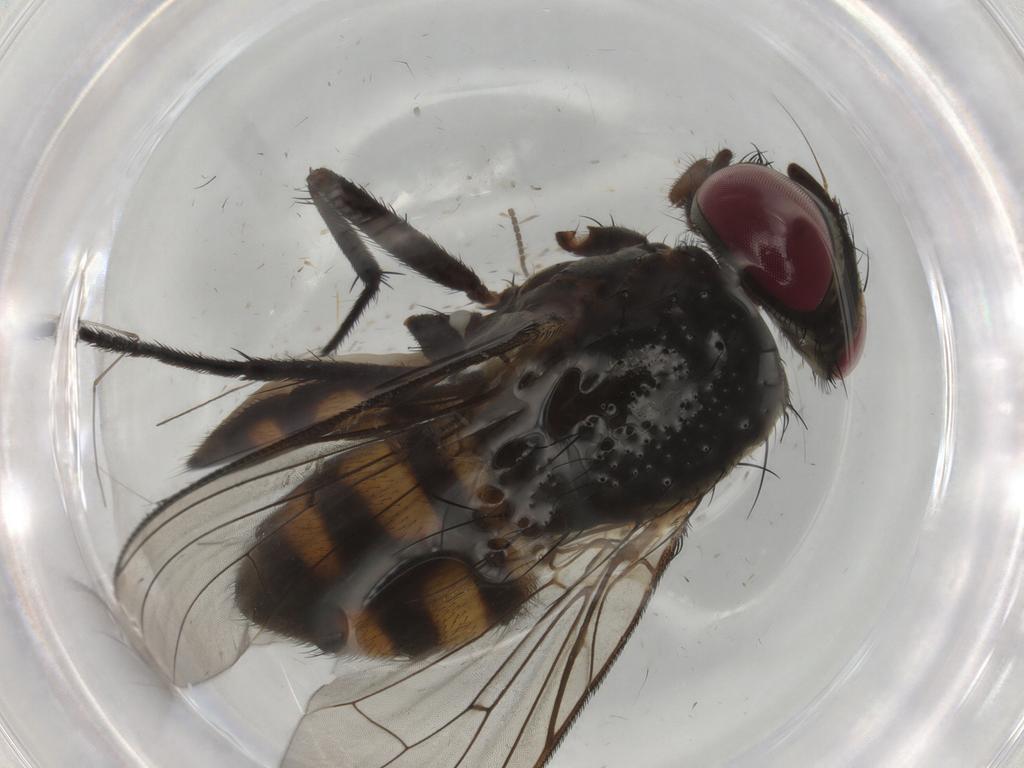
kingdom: Animalia
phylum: Arthropoda
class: Insecta
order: Diptera
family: Fannia
